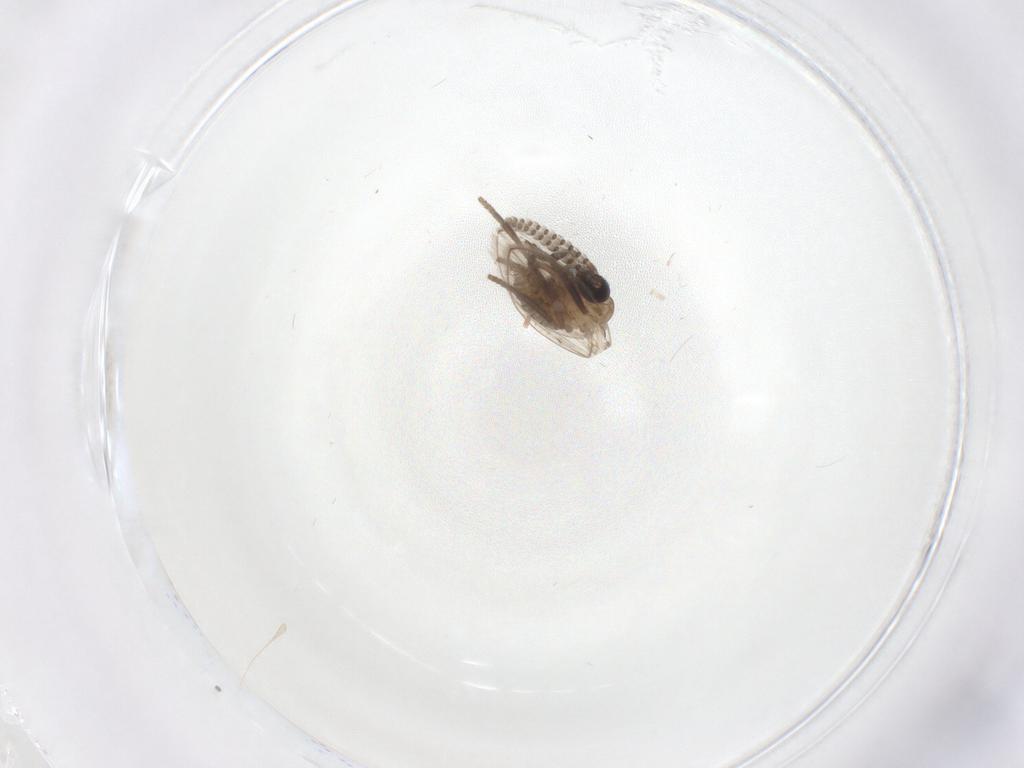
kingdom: Animalia
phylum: Arthropoda
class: Insecta
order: Diptera
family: Psychodidae
